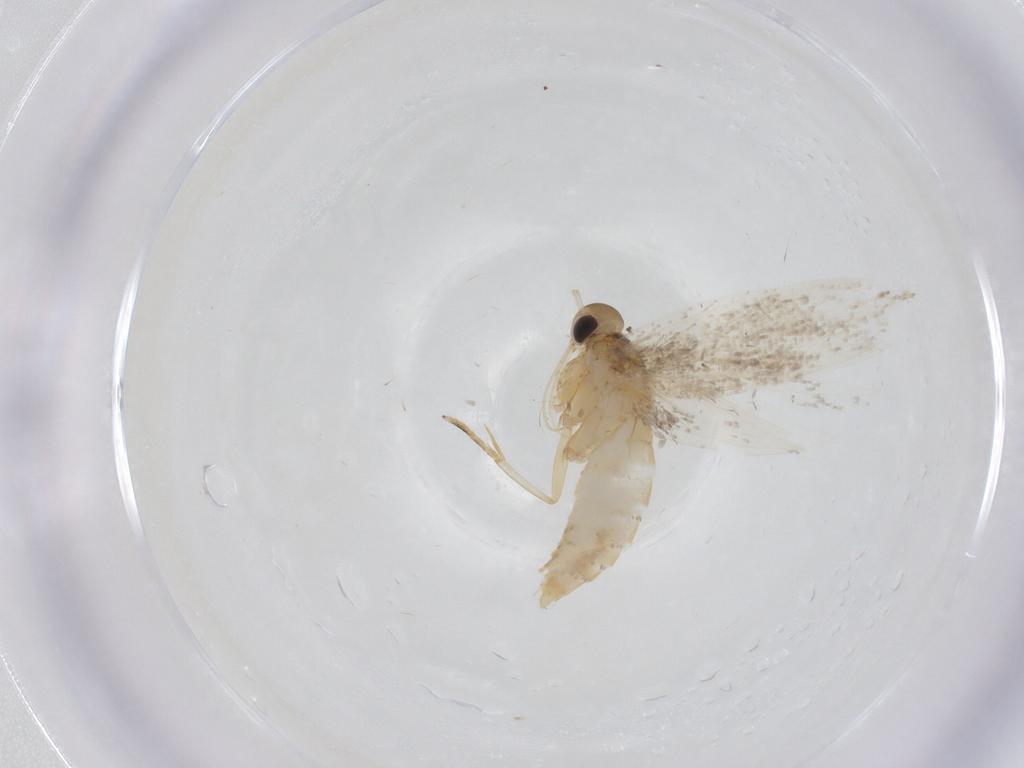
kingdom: Animalia
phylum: Arthropoda
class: Insecta
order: Lepidoptera
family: Oecophoridae
